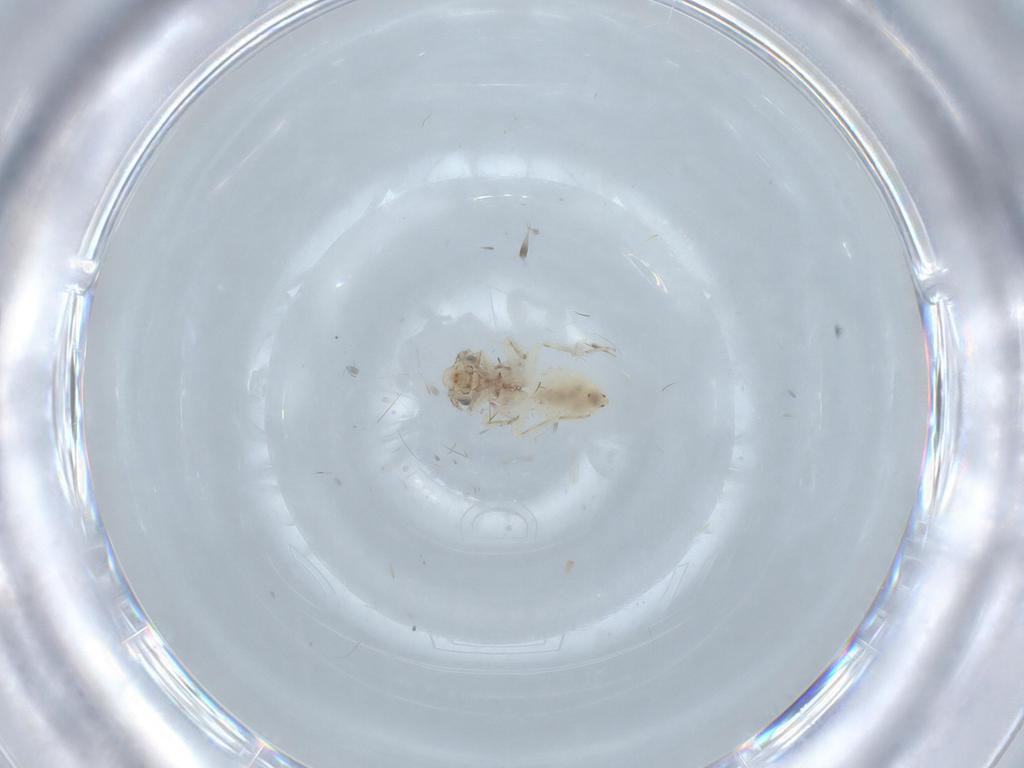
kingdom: Animalia
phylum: Arthropoda
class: Insecta
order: Psocodea
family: Lepidopsocidae
